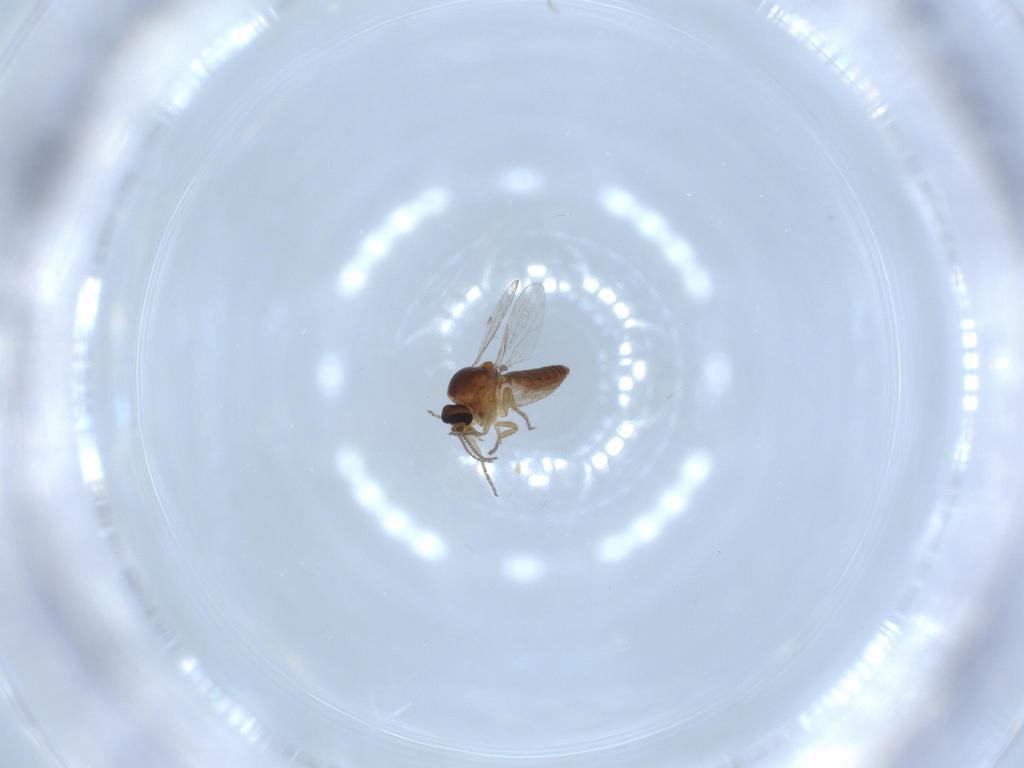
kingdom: Animalia
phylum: Arthropoda
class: Insecta
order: Diptera
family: Ceratopogonidae
